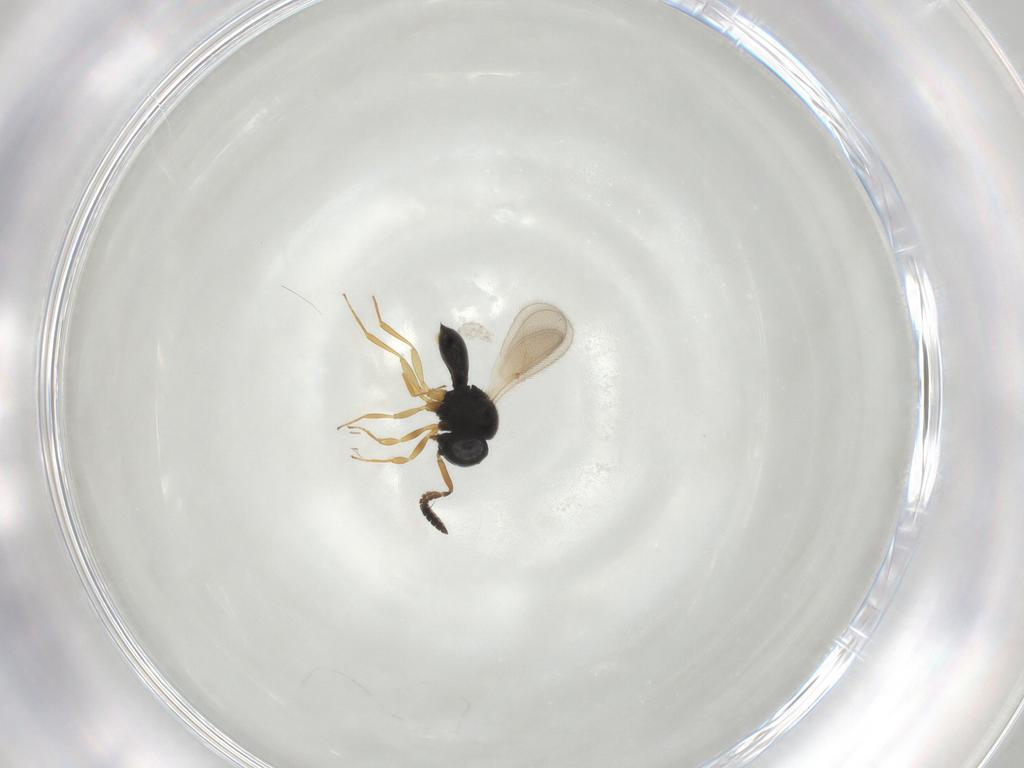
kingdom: Animalia
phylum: Arthropoda
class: Insecta
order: Hymenoptera
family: Scelionidae
